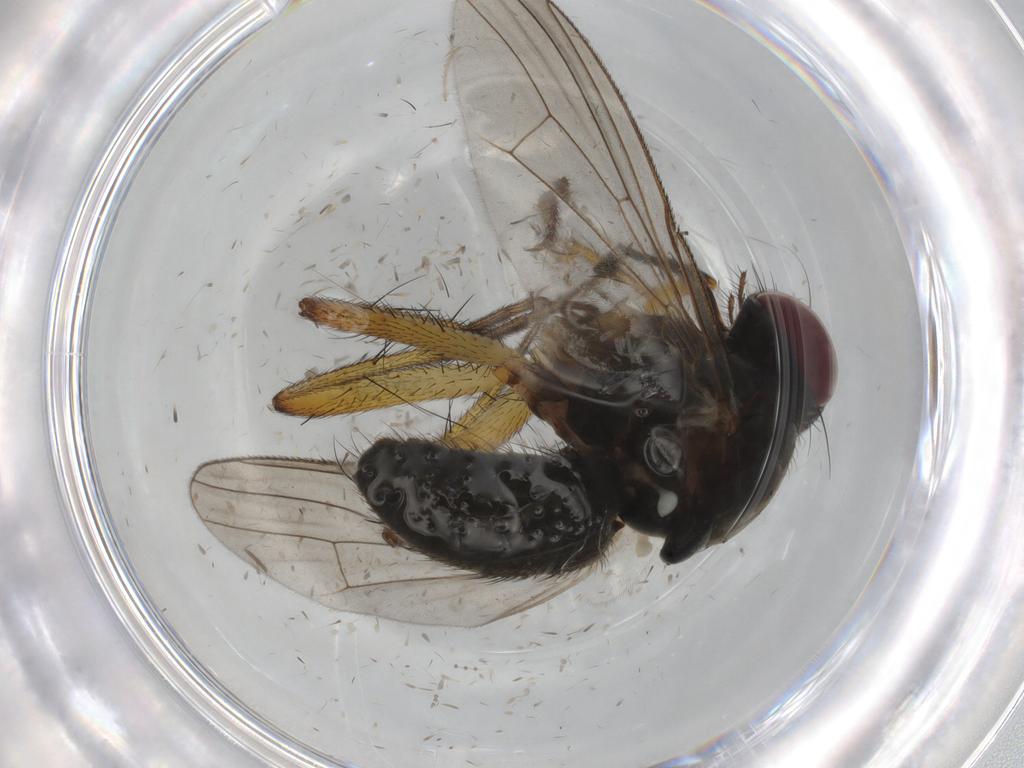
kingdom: Animalia
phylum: Arthropoda
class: Insecta
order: Diptera
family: Muscidae
